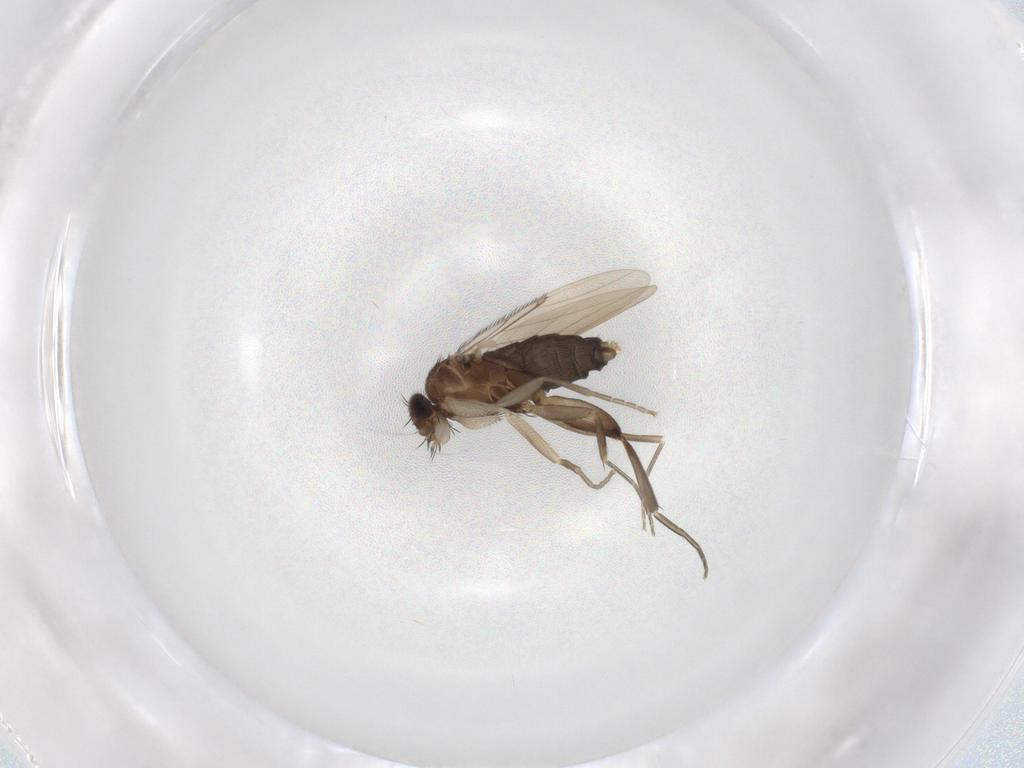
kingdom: Animalia
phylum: Arthropoda
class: Insecta
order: Diptera
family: Phoridae
